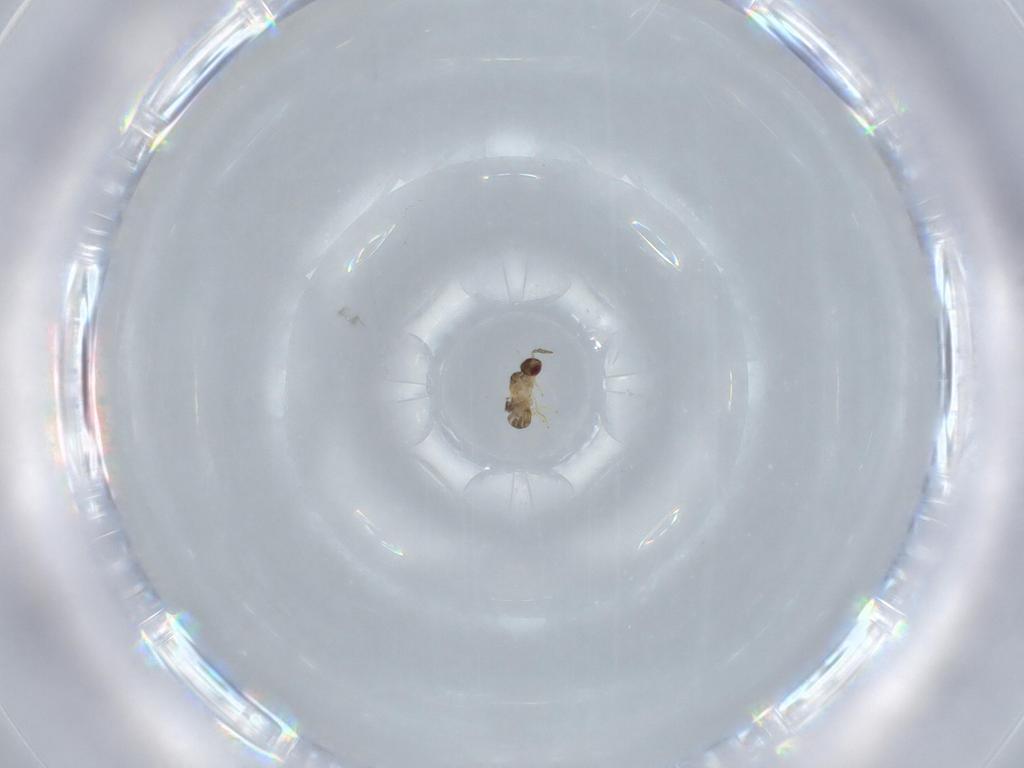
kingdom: Animalia
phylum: Arthropoda
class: Insecta
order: Hymenoptera
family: Trichogrammatidae
